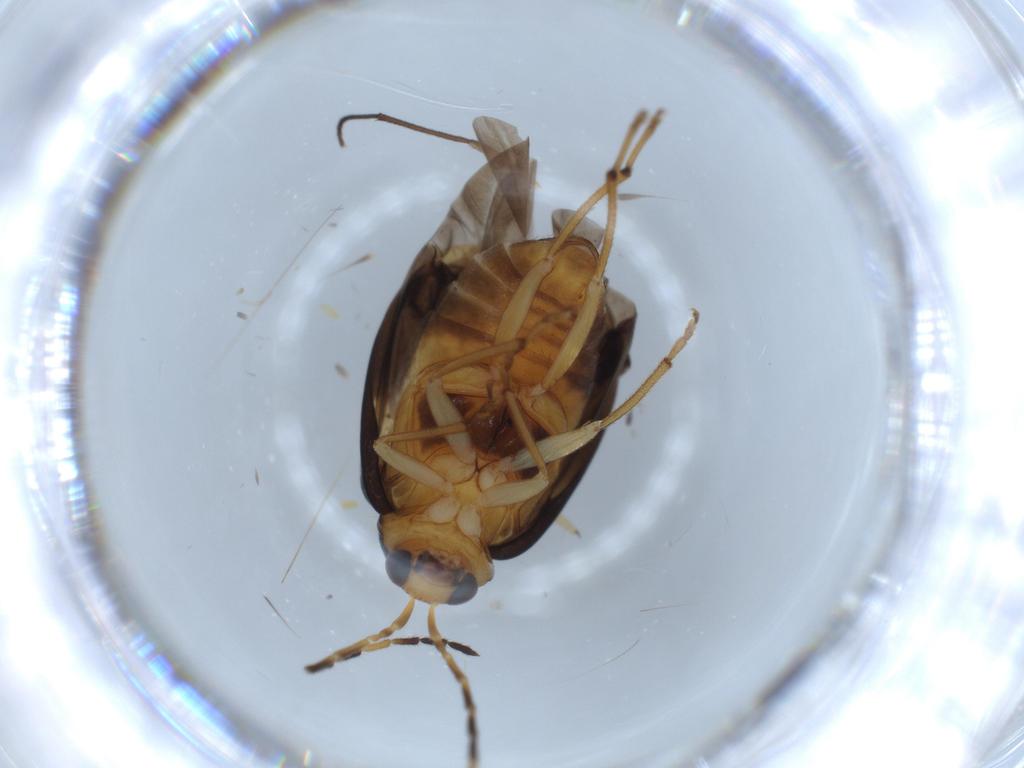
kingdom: Animalia
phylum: Arthropoda
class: Insecta
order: Coleoptera
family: Chrysomelidae
